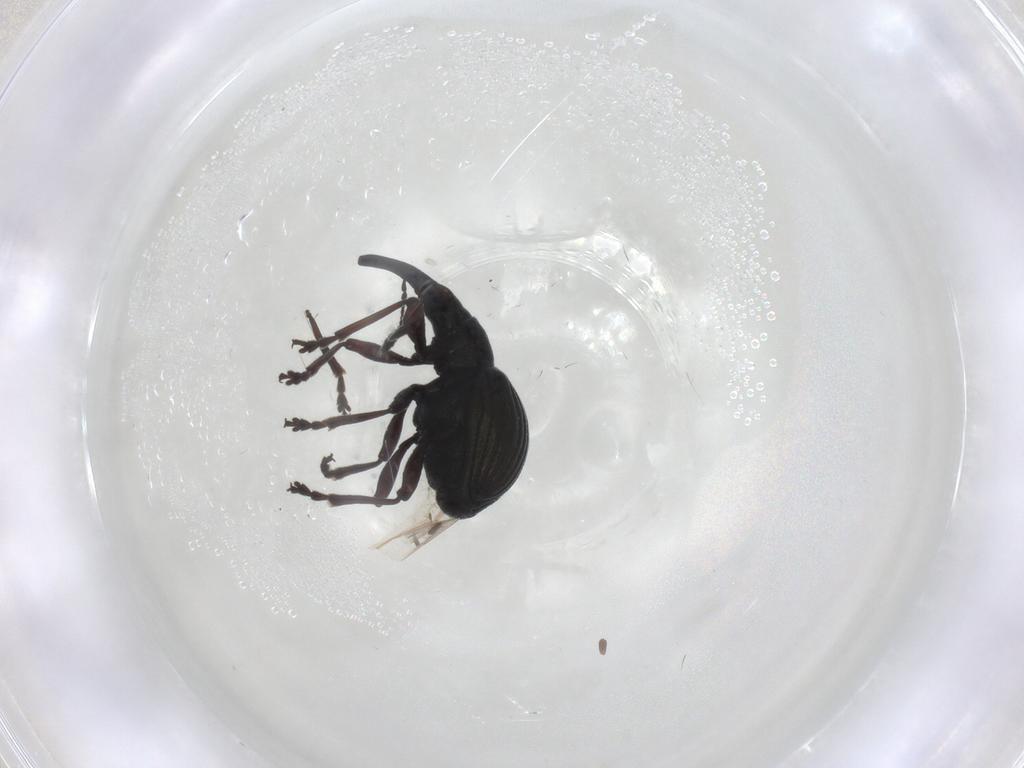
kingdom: Animalia
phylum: Arthropoda
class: Insecta
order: Coleoptera
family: Brentidae
